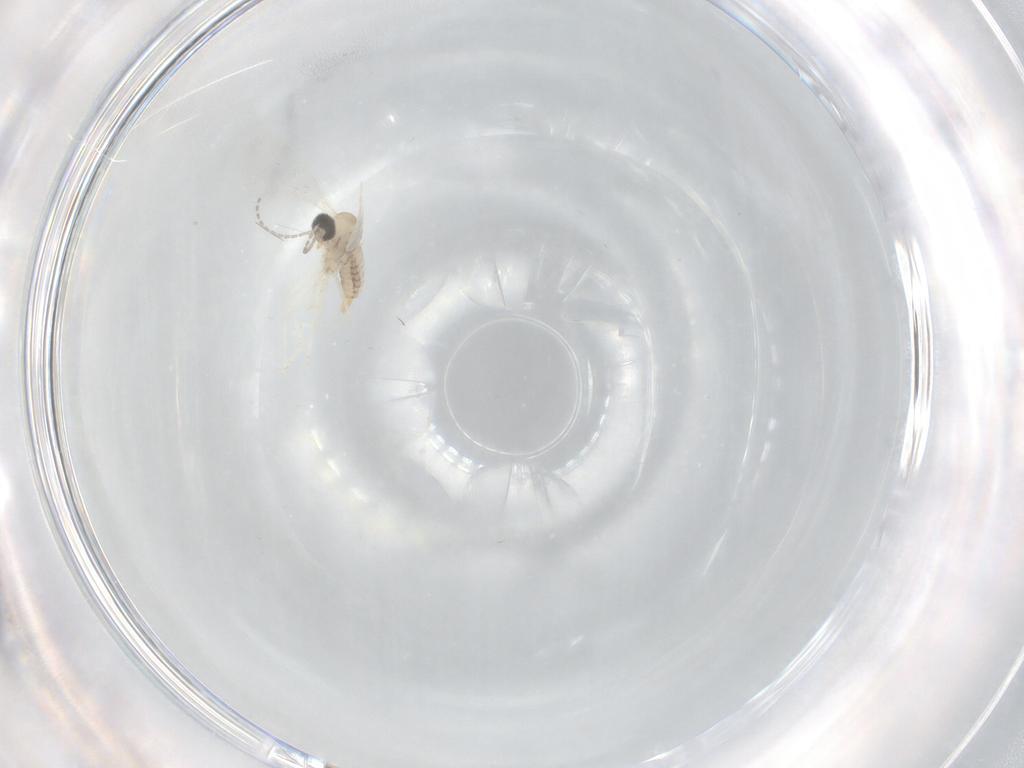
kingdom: Animalia
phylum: Arthropoda
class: Insecta
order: Diptera
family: Cecidomyiidae
